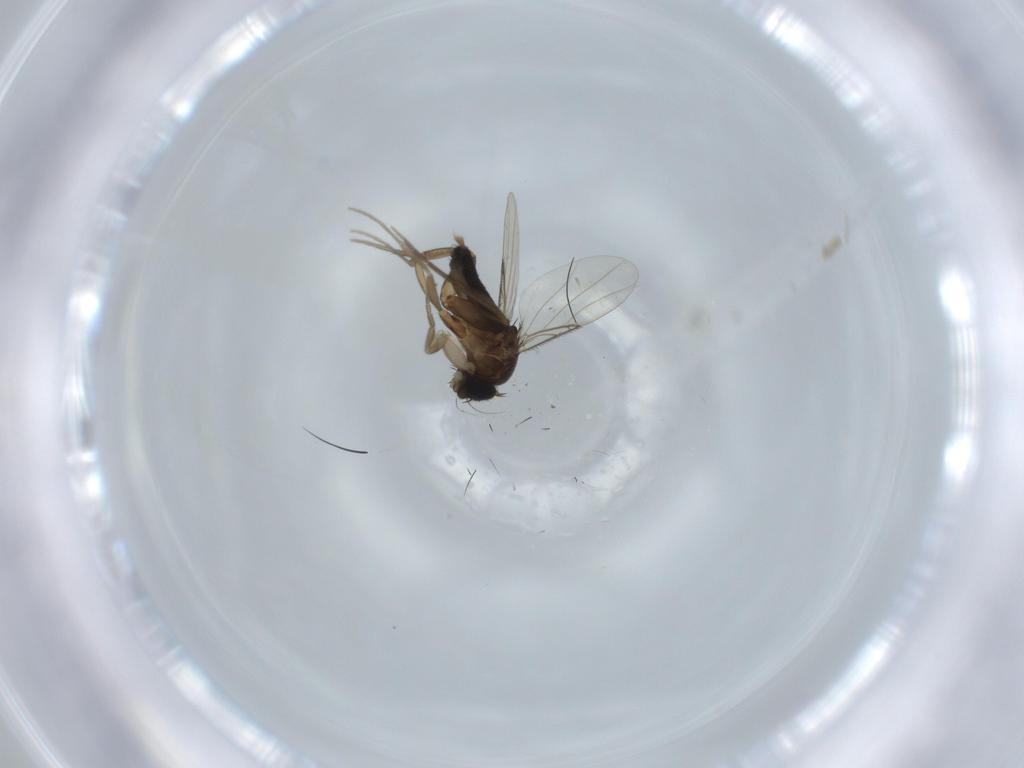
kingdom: Animalia
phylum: Arthropoda
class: Insecta
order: Diptera
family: Phoridae
